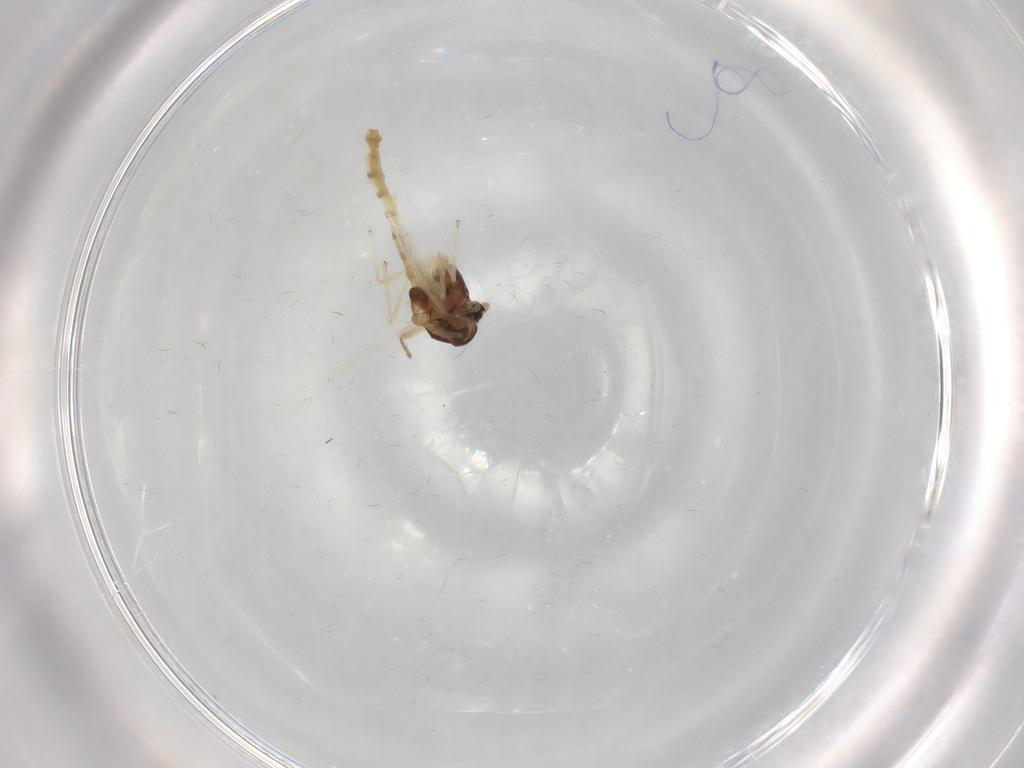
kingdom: Animalia
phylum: Arthropoda
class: Insecta
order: Diptera
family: Chironomidae
